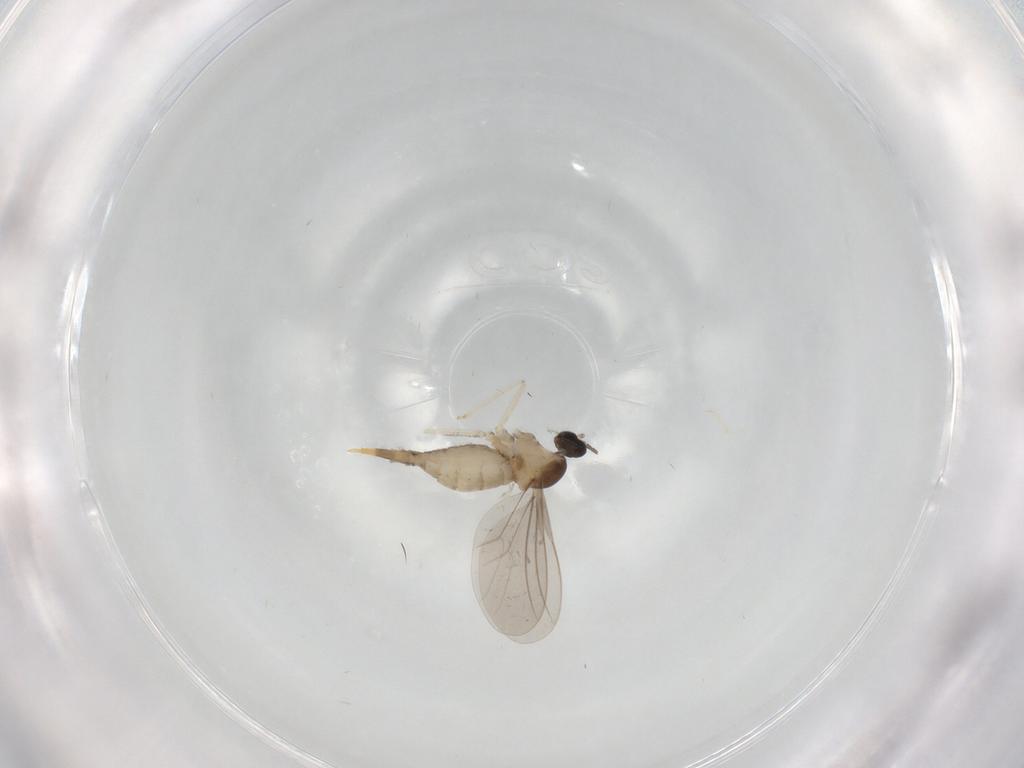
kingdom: Animalia
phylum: Arthropoda
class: Insecta
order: Diptera
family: Cecidomyiidae
